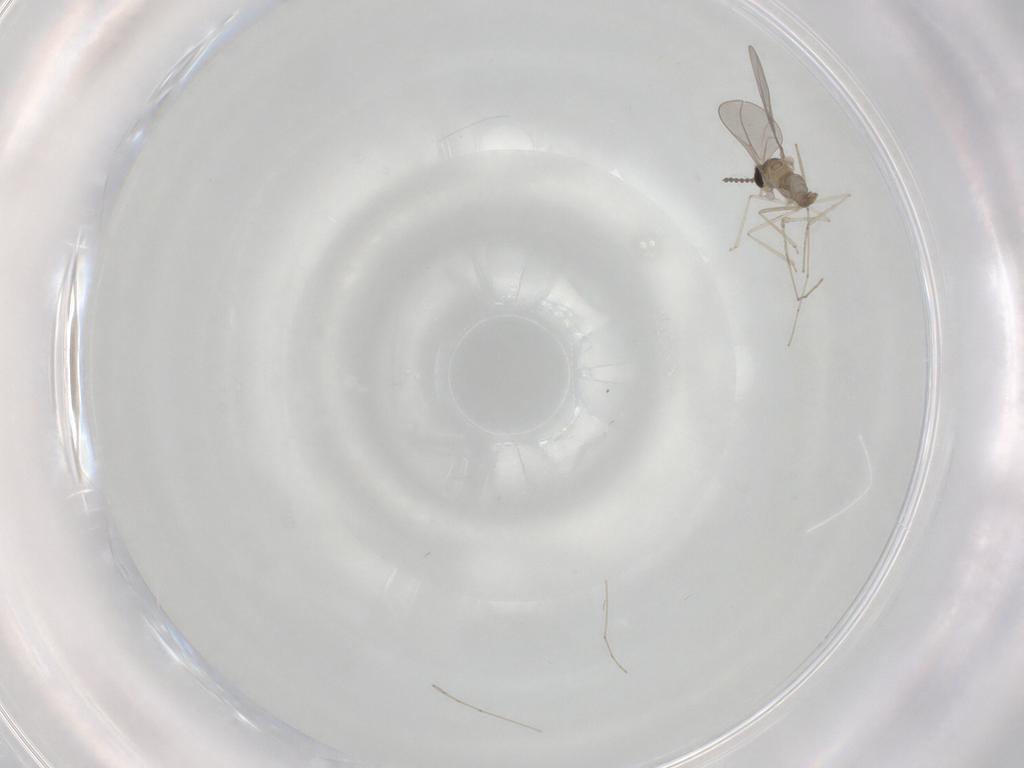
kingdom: Animalia
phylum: Arthropoda
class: Insecta
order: Diptera
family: Cecidomyiidae
